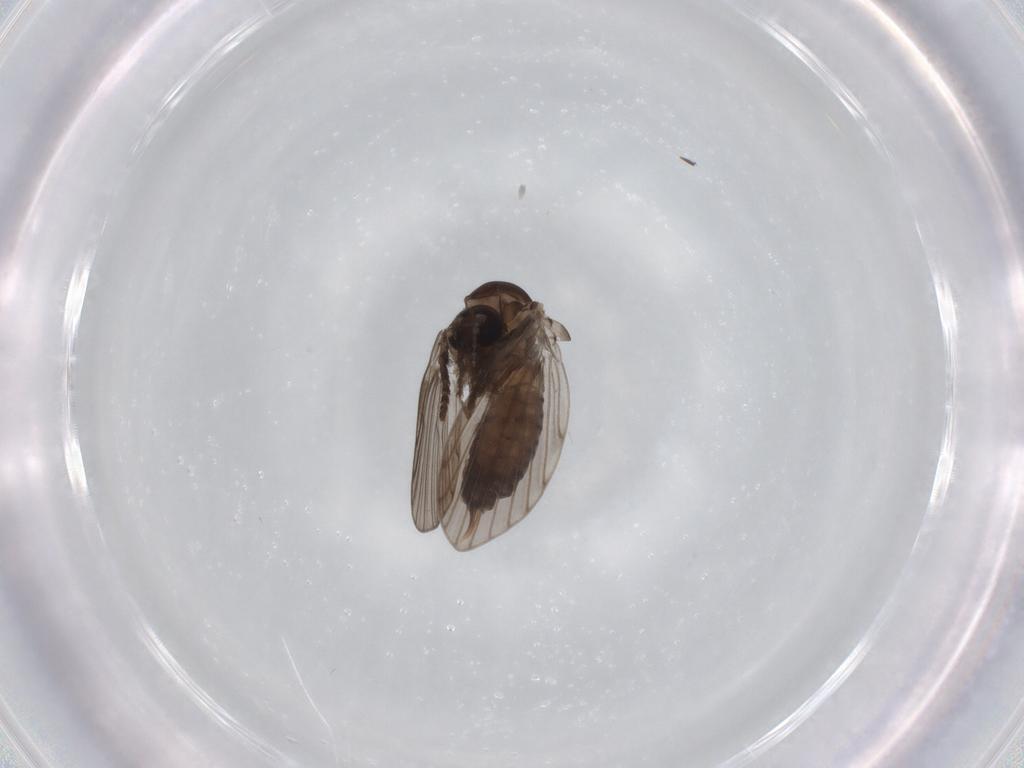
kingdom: Animalia
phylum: Arthropoda
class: Insecta
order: Diptera
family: Psychodidae
